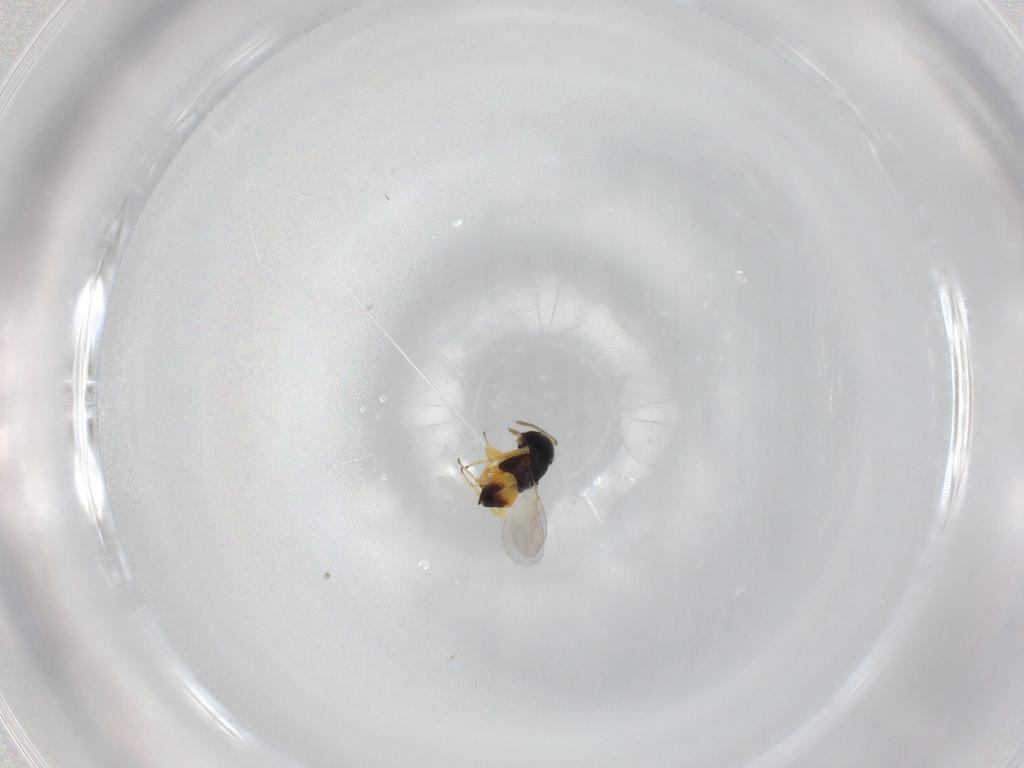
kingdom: Animalia
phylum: Arthropoda
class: Insecta
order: Hymenoptera
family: Encyrtidae
